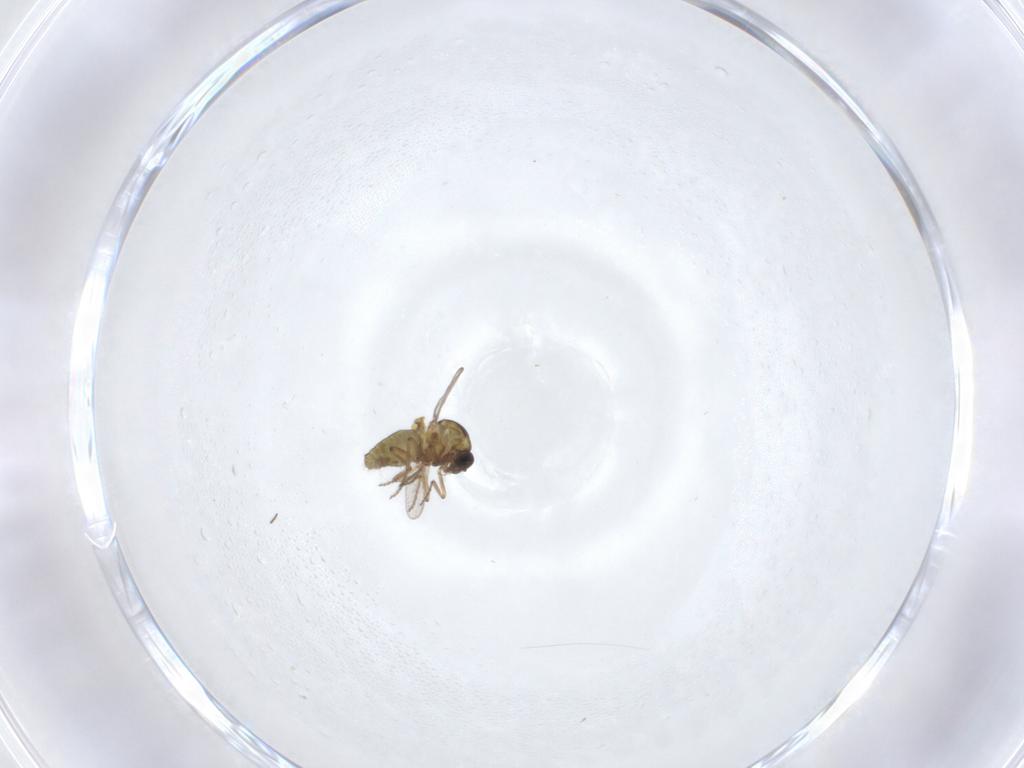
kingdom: Animalia
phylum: Arthropoda
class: Insecta
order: Diptera
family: Ceratopogonidae
